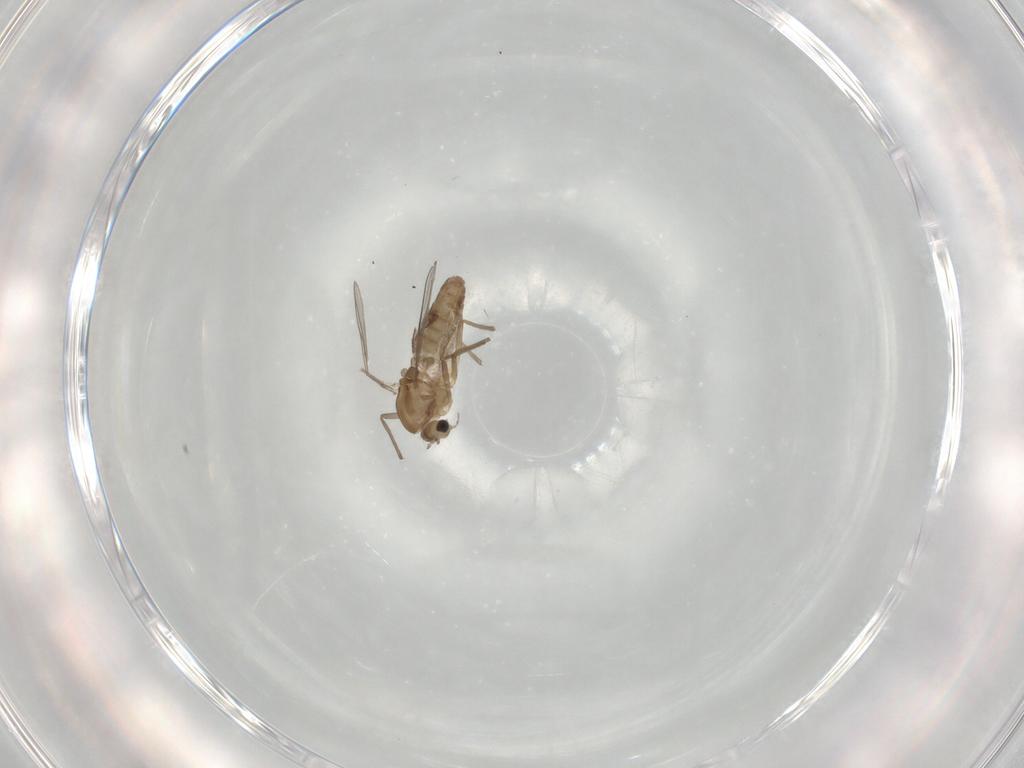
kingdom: Animalia
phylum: Arthropoda
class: Insecta
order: Diptera
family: Chironomidae
